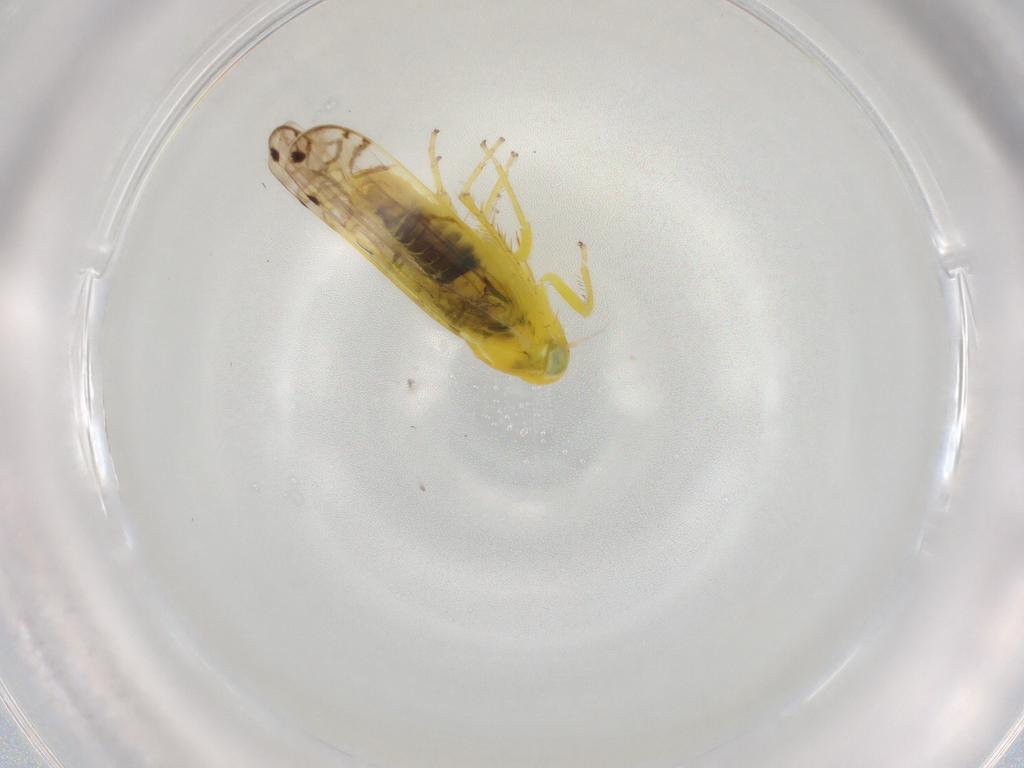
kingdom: Animalia
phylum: Arthropoda
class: Insecta
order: Hemiptera
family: Cicadellidae
